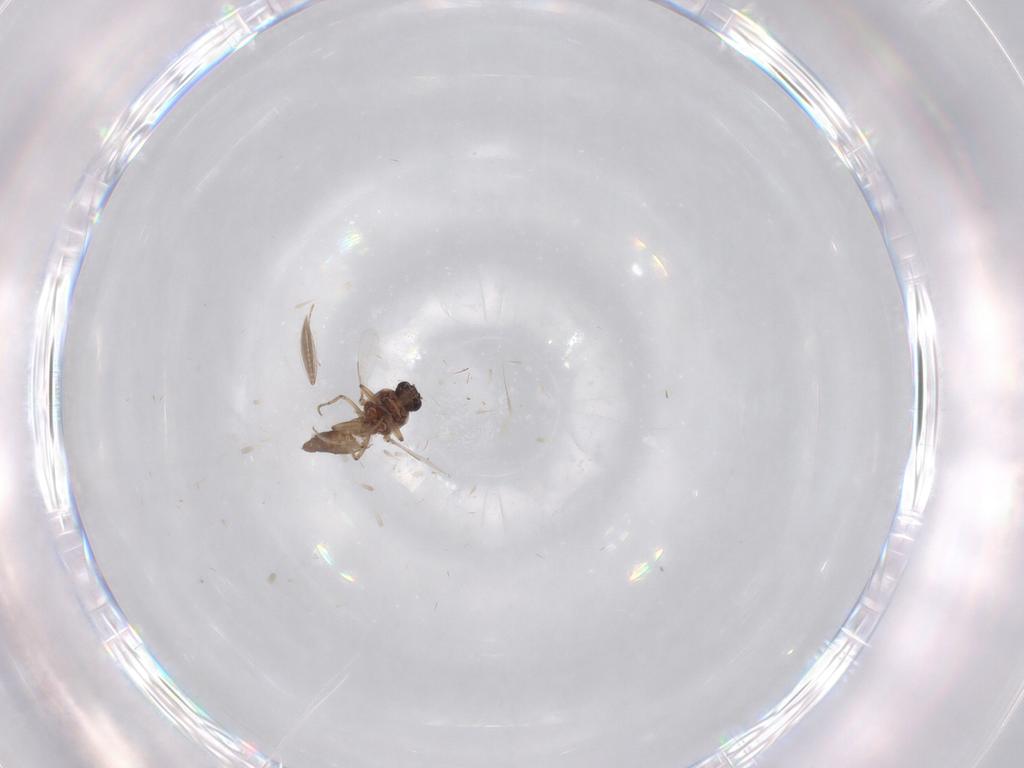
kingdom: Animalia
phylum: Arthropoda
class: Insecta
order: Diptera
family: Ceratopogonidae
